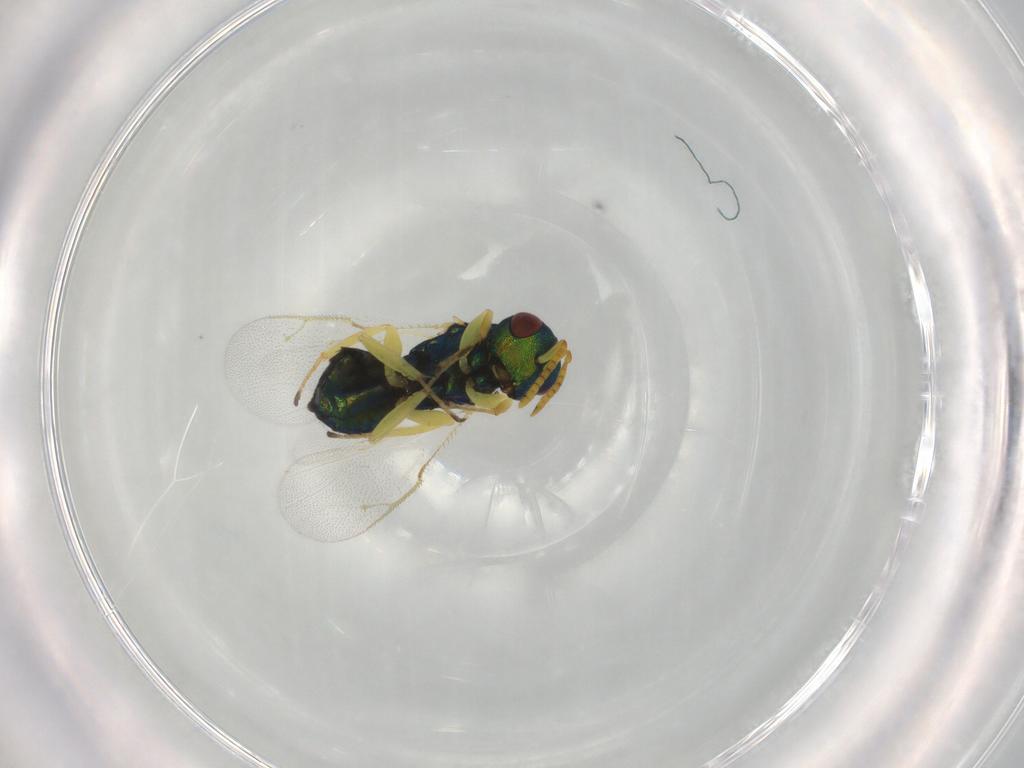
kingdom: Animalia
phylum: Arthropoda
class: Insecta
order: Hymenoptera
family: Pteromalidae
